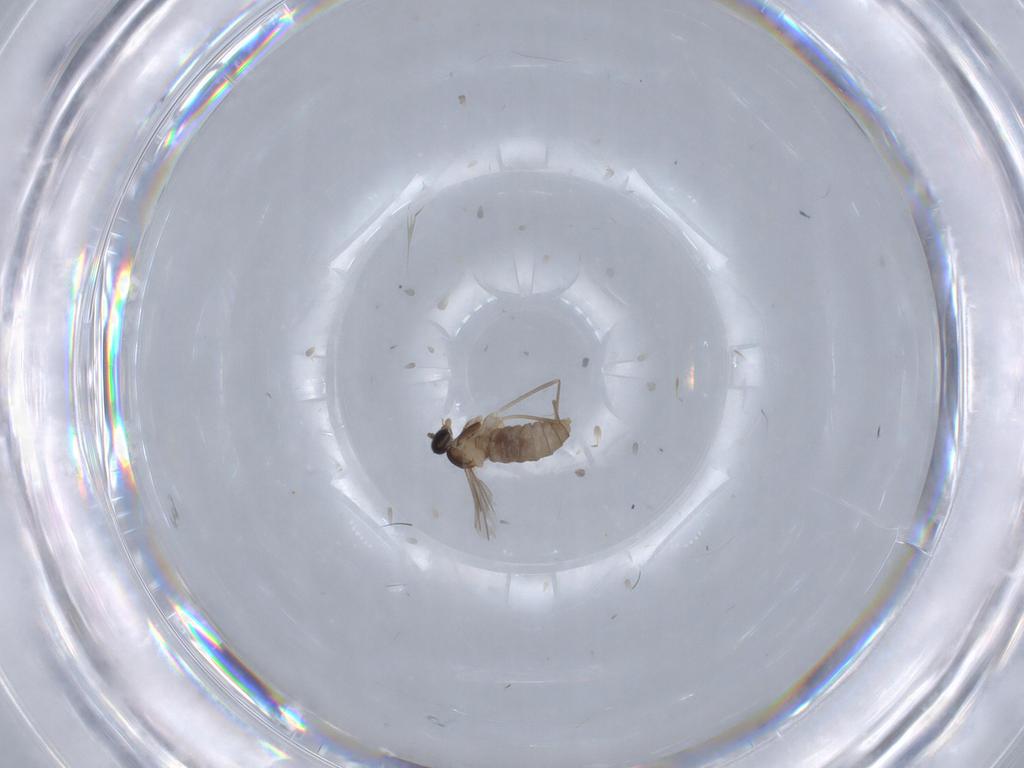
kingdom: Animalia
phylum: Arthropoda
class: Insecta
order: Diptera
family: Cecidomyiidae
